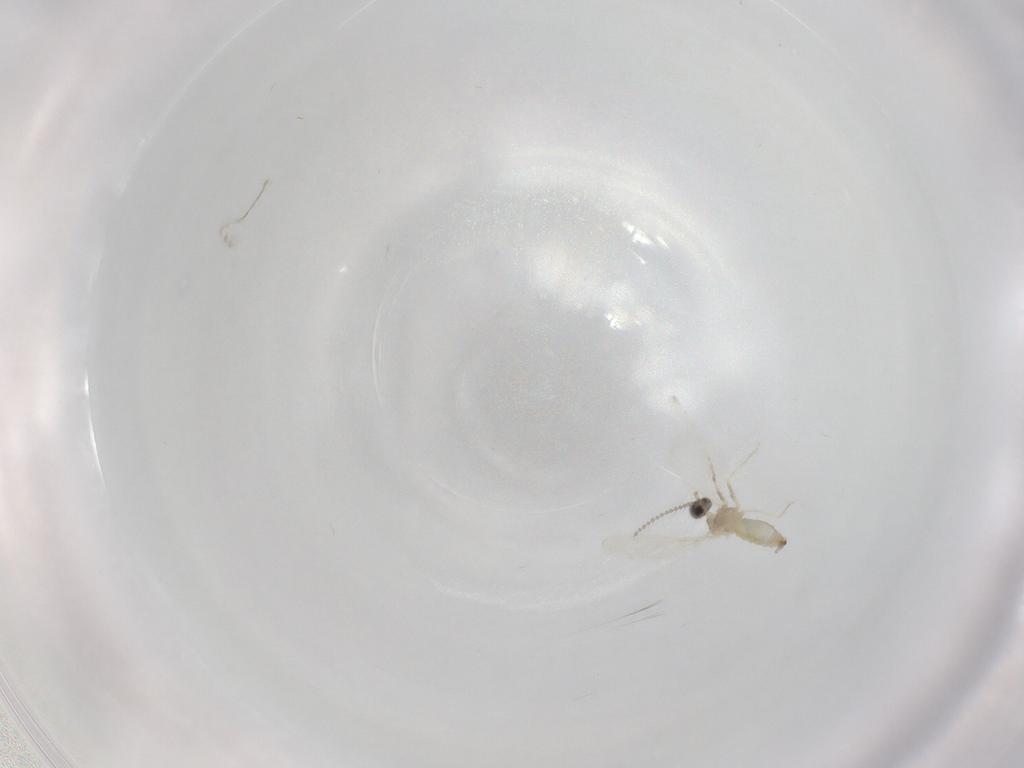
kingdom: Animalia
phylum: Arthropoda
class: Insecta
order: Diptera
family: Cecidomyiidae
